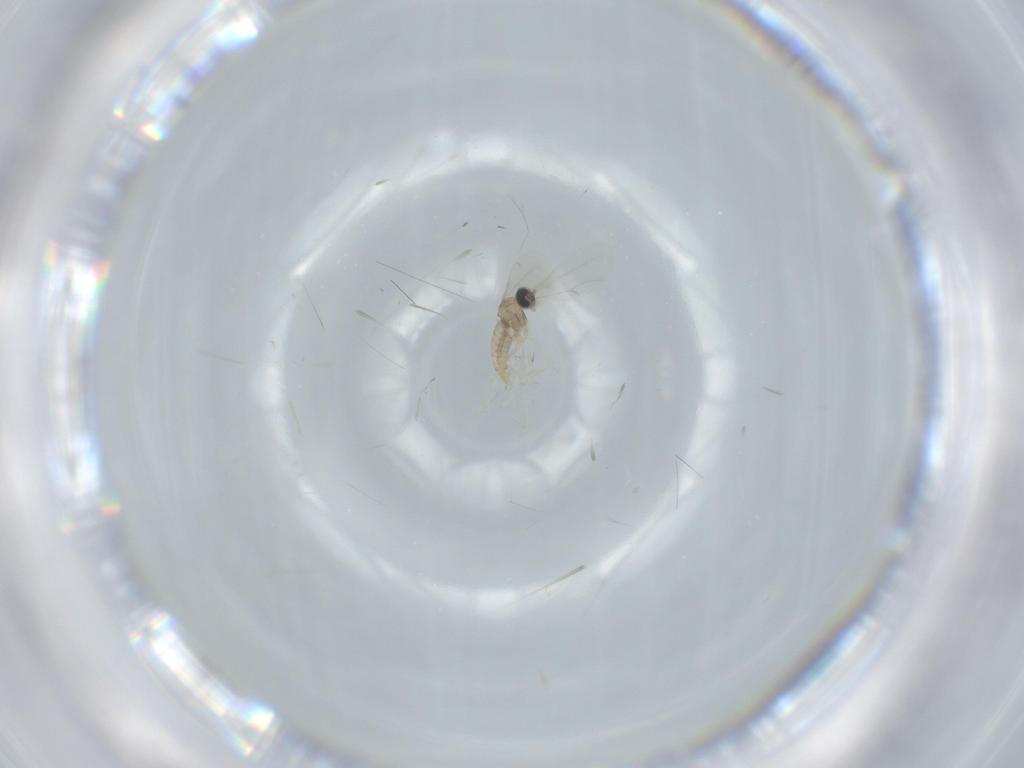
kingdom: Animalia
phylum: Arthropoda
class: Insecta
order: Diptera
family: Cecidomyiidae
